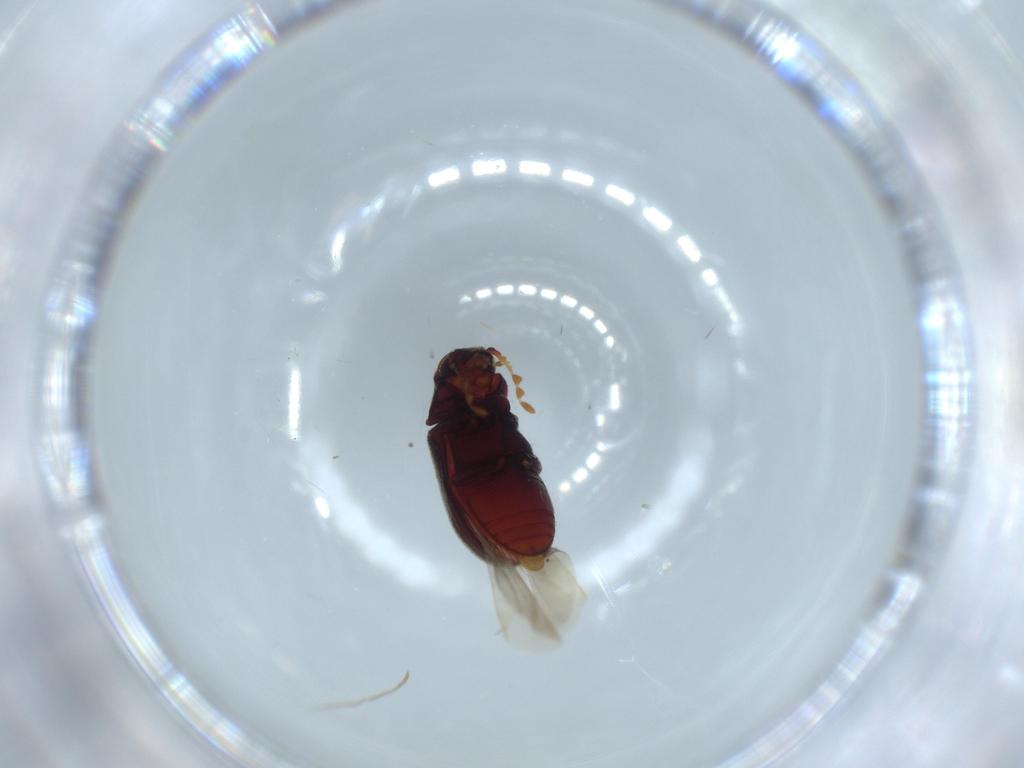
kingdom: Animalia
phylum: Arthropoda
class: Insecta
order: Coleoptera
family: Anobiidae
